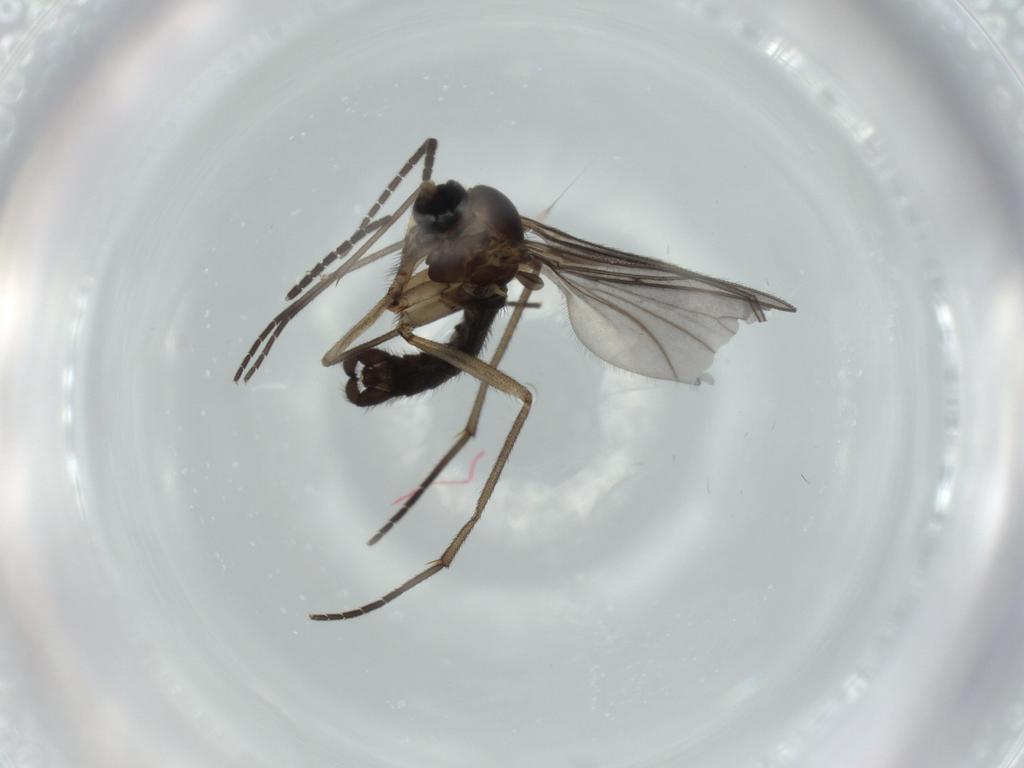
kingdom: Animalia
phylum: Arthropoda
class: Insecta
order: Diptera
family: Sciaridae
